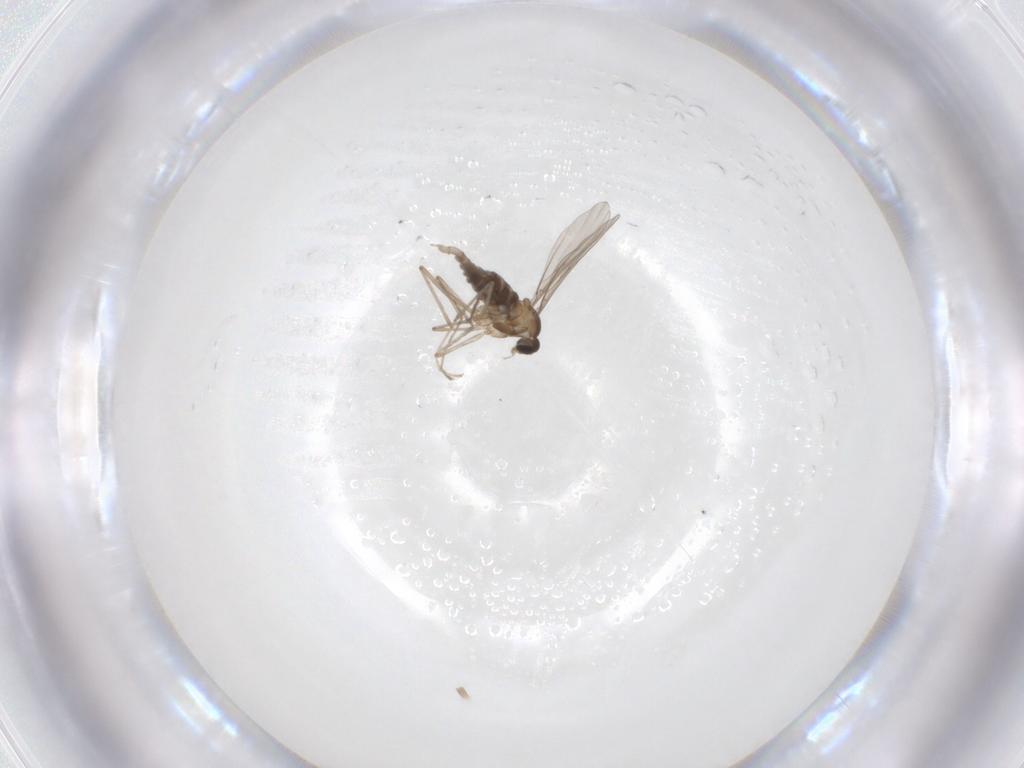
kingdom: Animalia
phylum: Arthropoda
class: Insecta
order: Diptera
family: Cecidomyiidae
